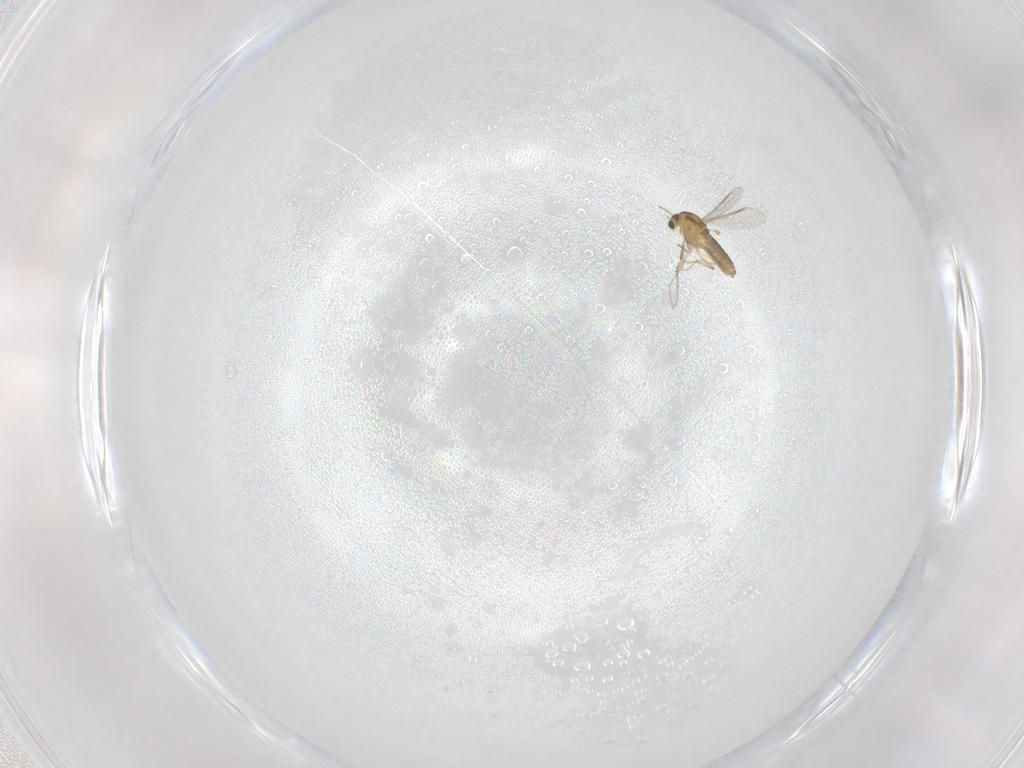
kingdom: Animalia
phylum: Arthropoda
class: Insecta
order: Diptera
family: Chironomidae
